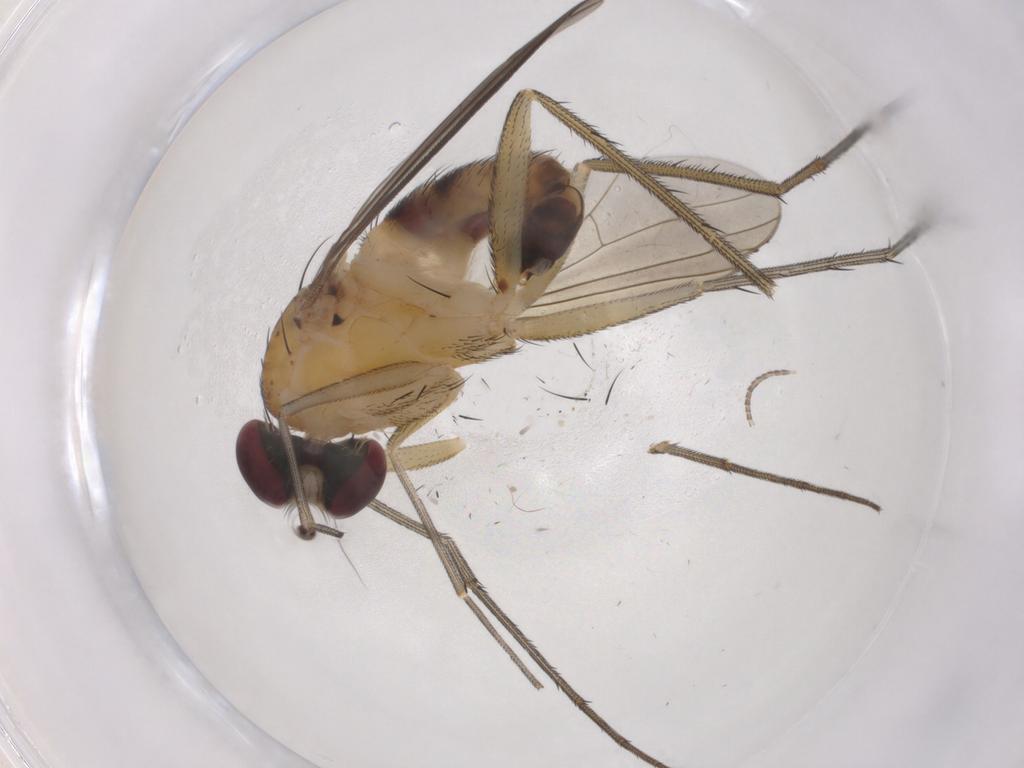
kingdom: Animalia
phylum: Arthropoda
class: Insecta
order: Diptera
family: Dolichopodidae
